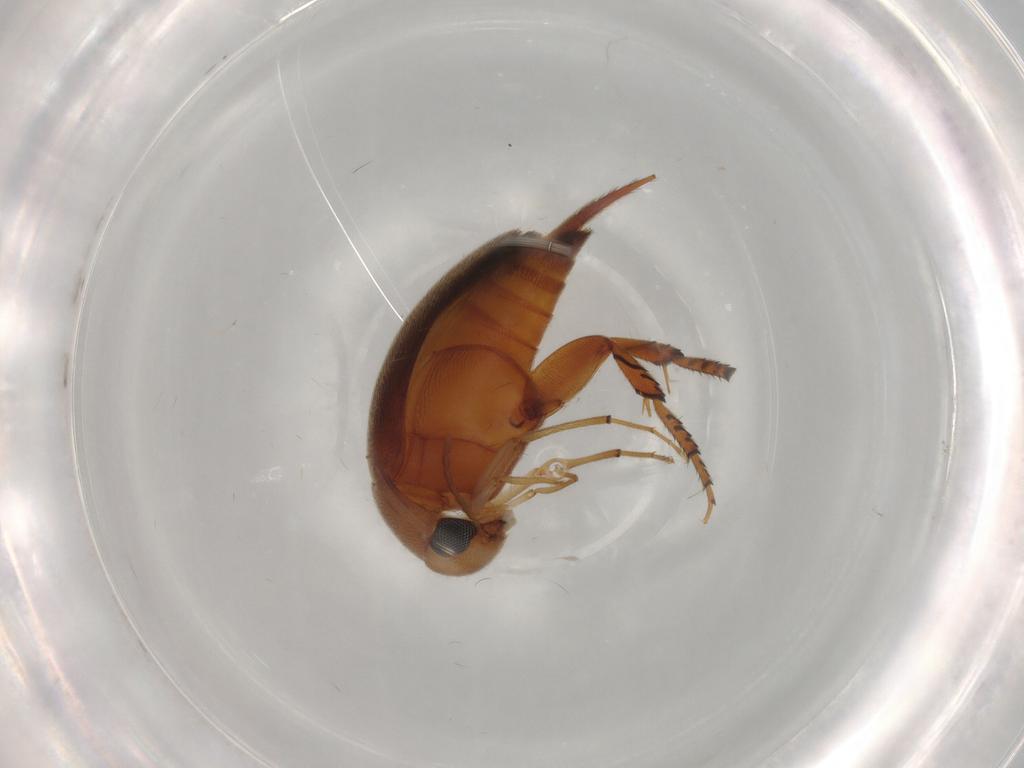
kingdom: Animalia
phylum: Arthropoda
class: Insecta
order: Coleoptera
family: Mordellidae
